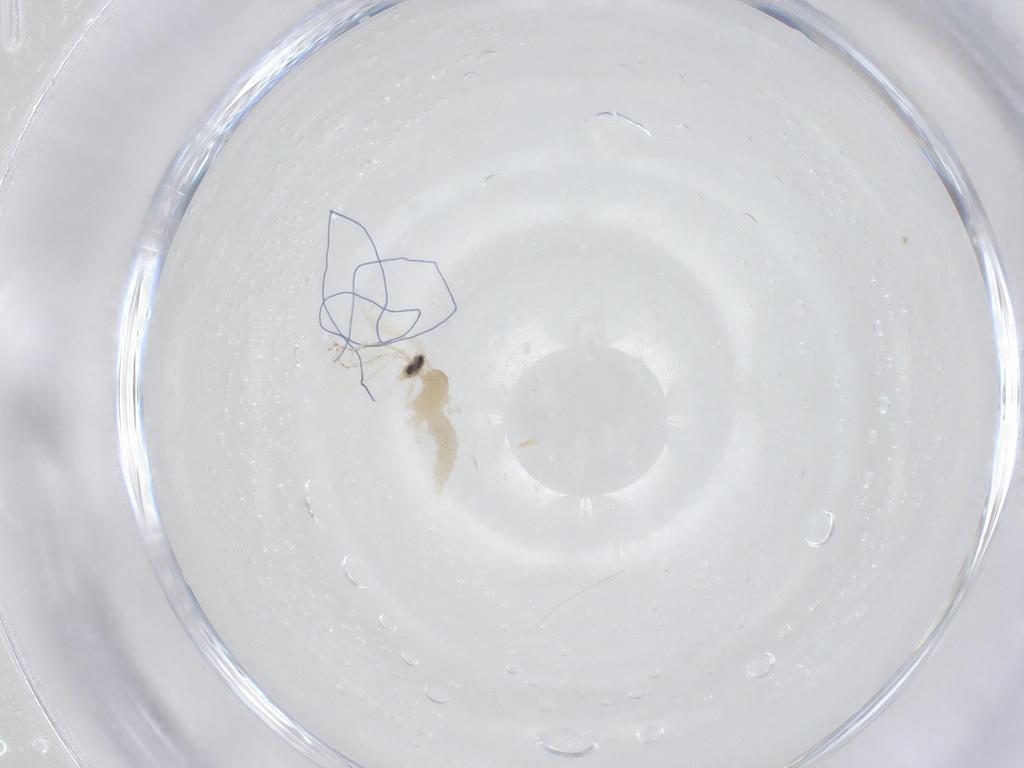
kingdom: Animalia
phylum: Arthropoda
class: Insecta
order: Diptera
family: Cecidomyiidae
